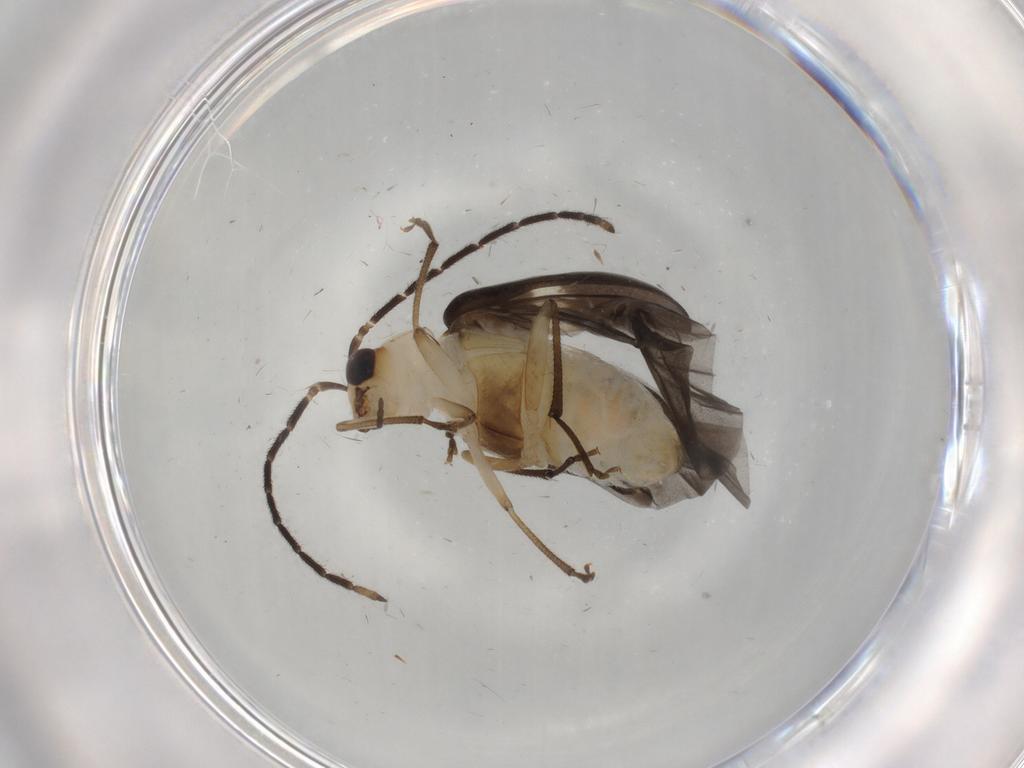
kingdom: Animalia
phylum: Arthropoda
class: Insecta
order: Coleoptera
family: Chrysomelidae
